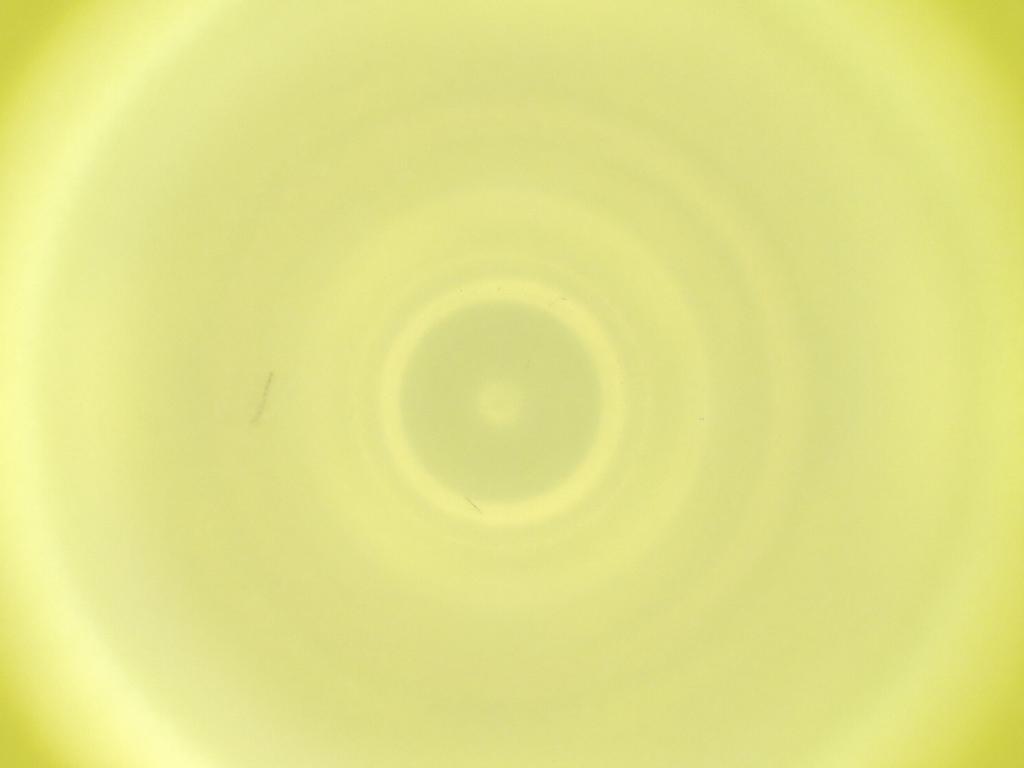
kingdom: Animalia
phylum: Arthropoda
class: Insecta
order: Diptera
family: Cecidomyiidae
